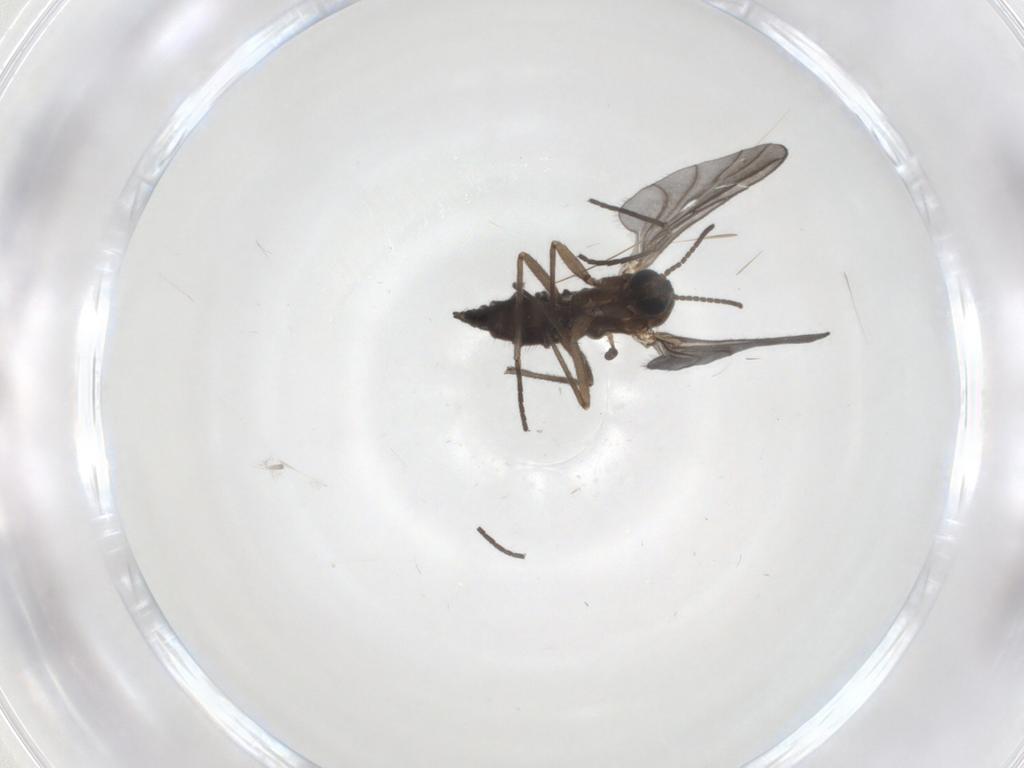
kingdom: Animalia
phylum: Arthropoda
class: Insecta
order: Diptera
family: Sciaridae
